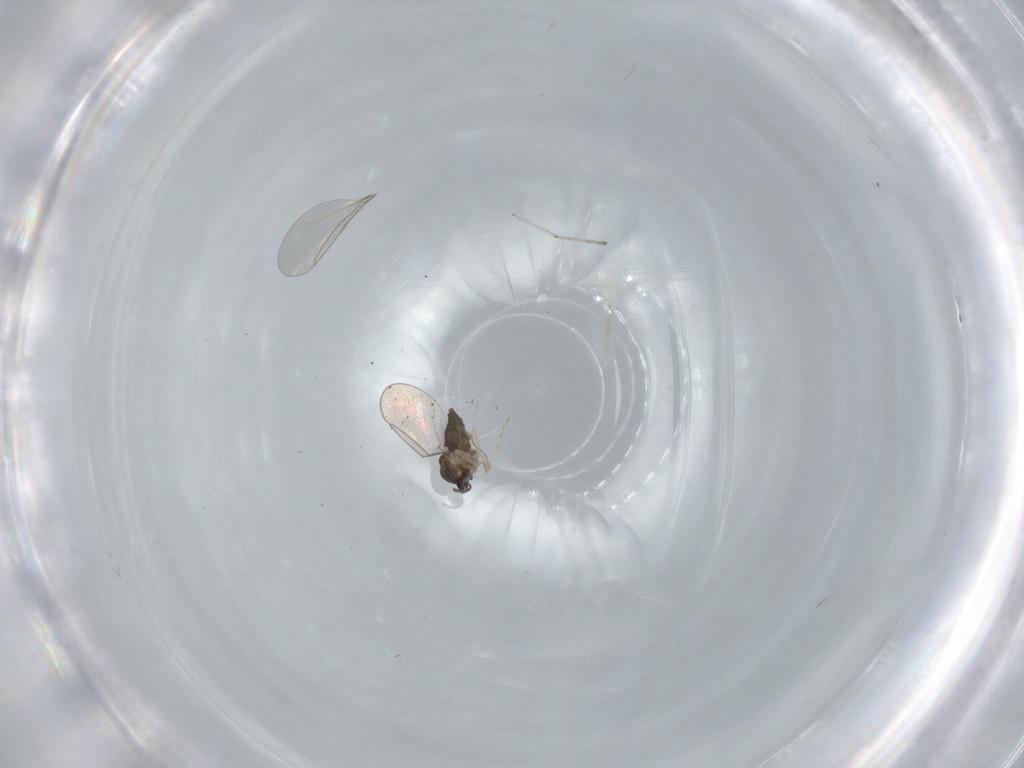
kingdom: Animalia
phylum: Arthropoda
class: Insecta
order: Diptera
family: Cecidomyiidae
